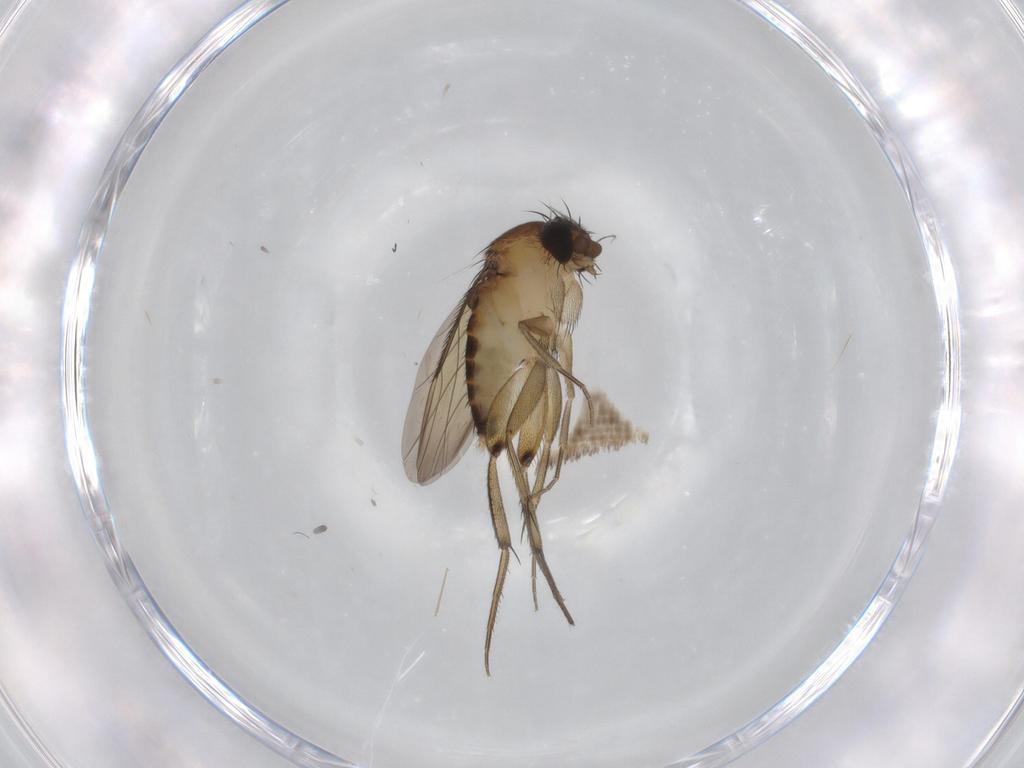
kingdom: Animalia
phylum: Arthropoda
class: Insecta
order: Diptera
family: Phoridae
